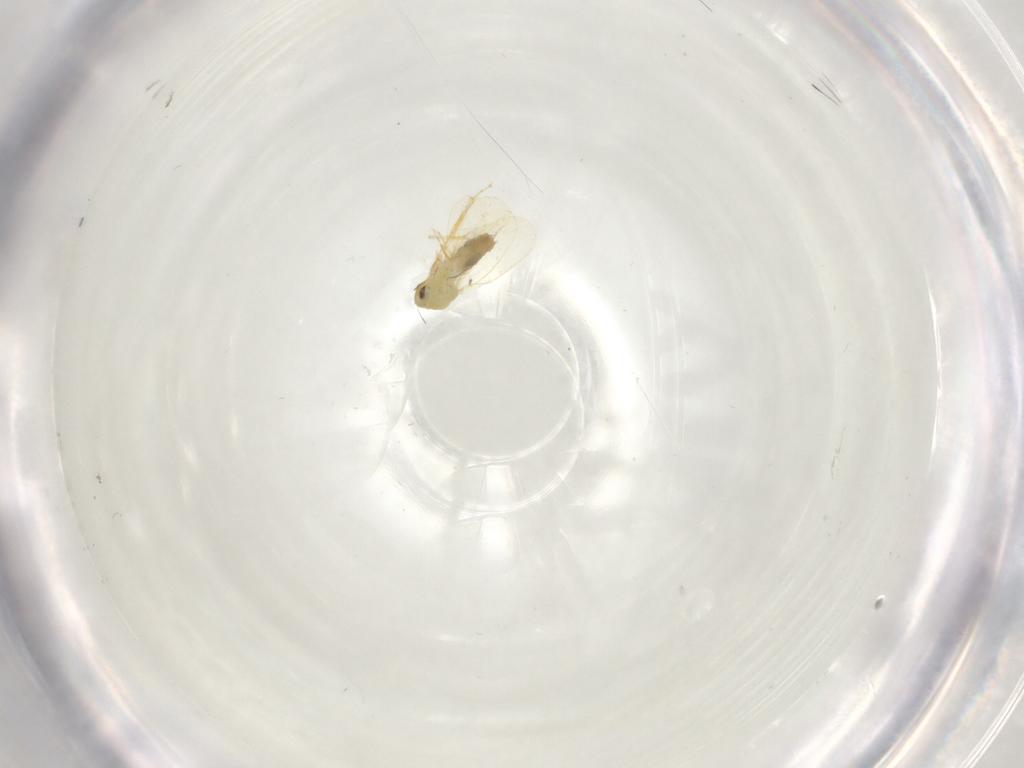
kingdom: Animalia
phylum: Arthropoda
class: Insecta
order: Hemiptera
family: Aleyrodidae
